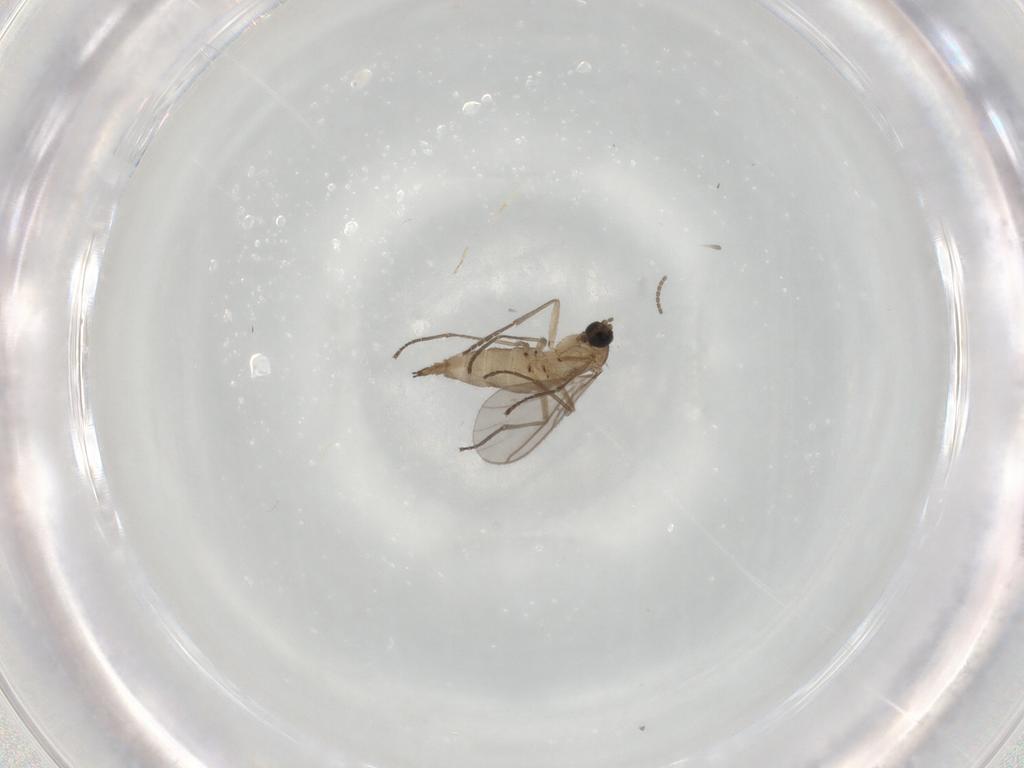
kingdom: Animalia
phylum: Arthropoda
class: Insecta
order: Diptera
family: Sciaridae
